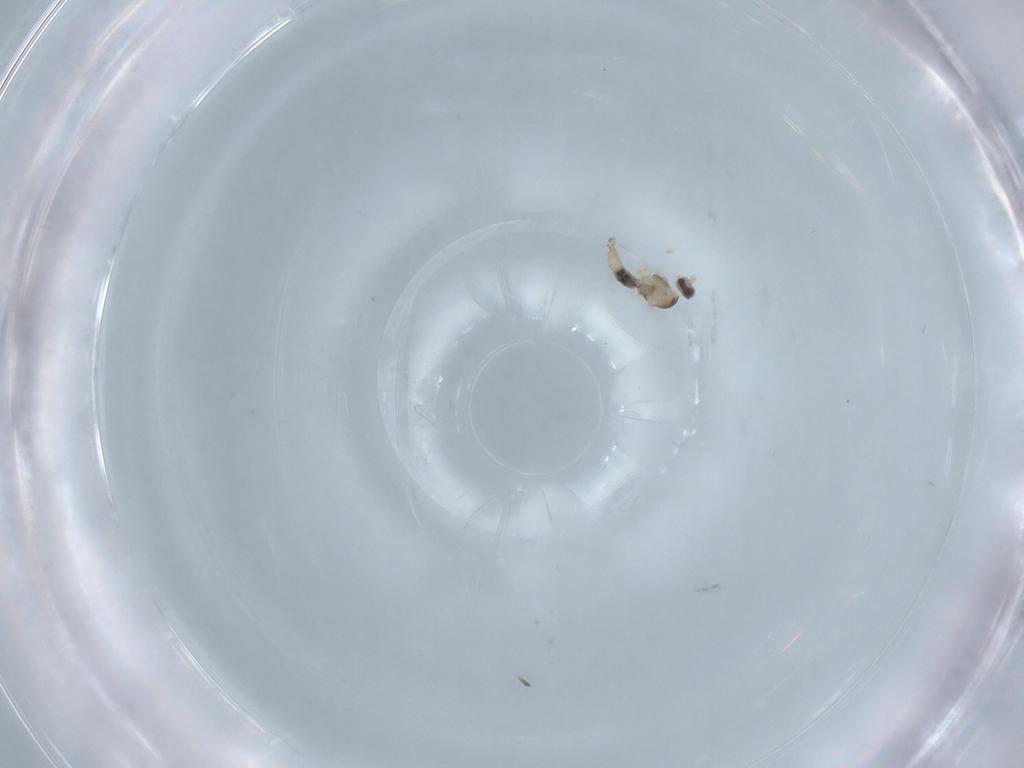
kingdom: Animalia
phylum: Arthropoda
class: Insecta
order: Diptera
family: Cecidomyiidae
